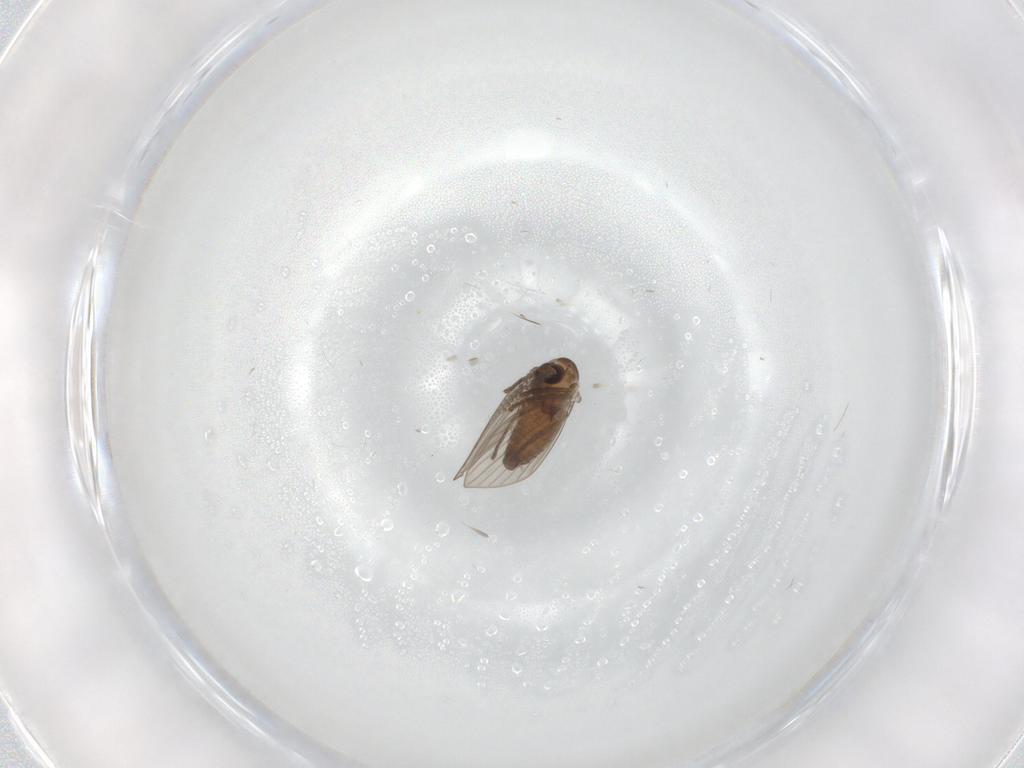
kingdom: Animalia
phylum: Arthropoda
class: Insecta
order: Diptera
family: Psychodidae
